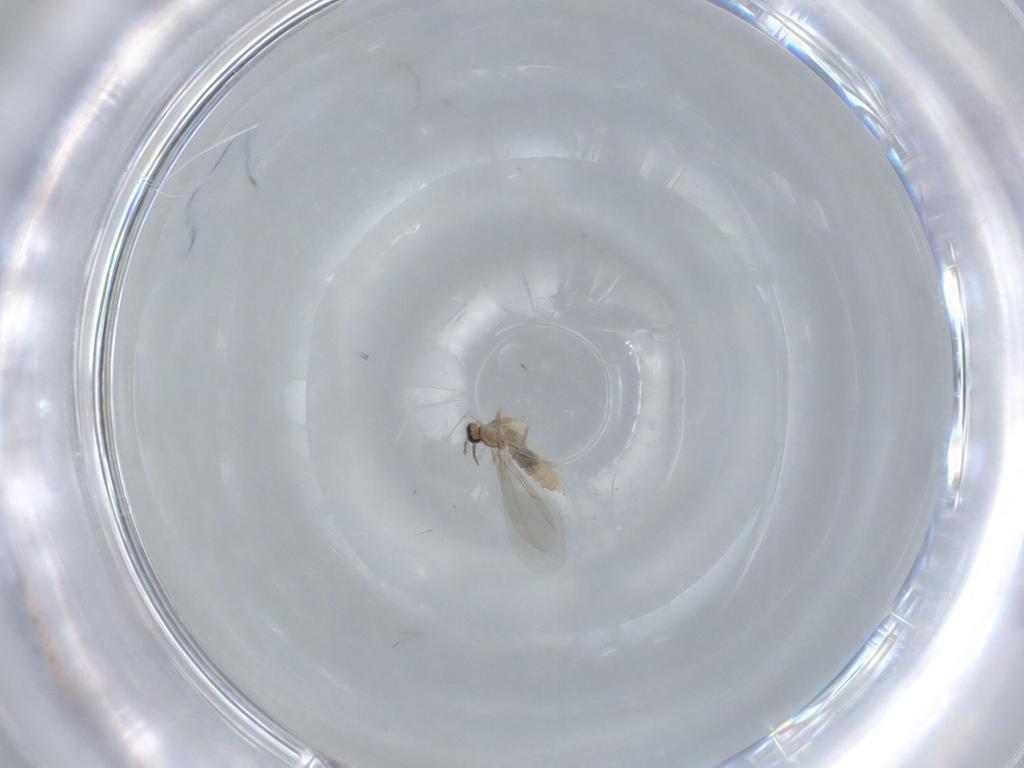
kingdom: Animalia
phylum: Arthropoda
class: Insecta
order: Diptera
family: Cecidomyiidae
